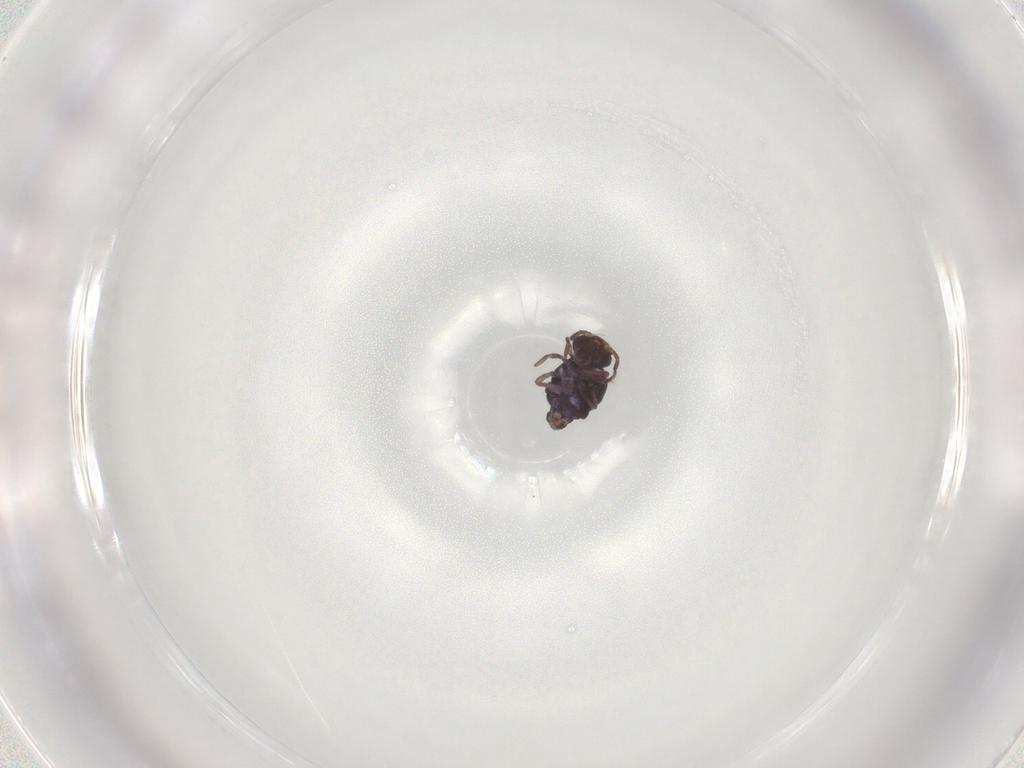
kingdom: Animalia
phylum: Arthropoda
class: Collembola
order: Symphypleona
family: Bourletiellidae
